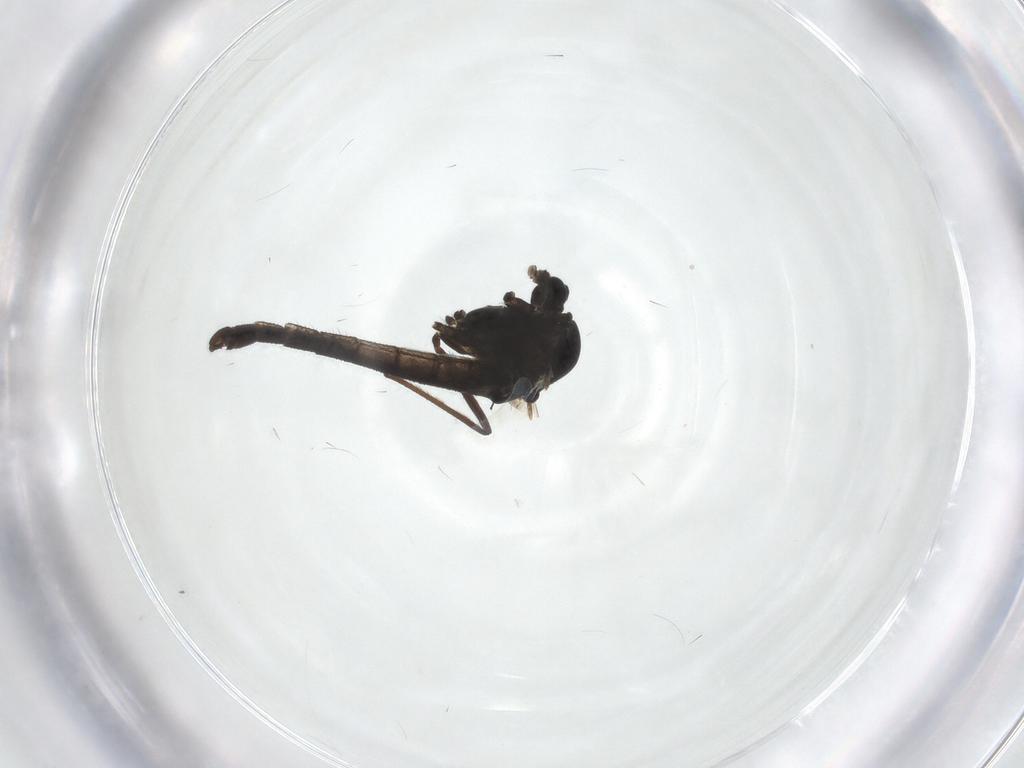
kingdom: Animalia
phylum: Arthropoda
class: Insecta
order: Diptera
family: Chironomidae
